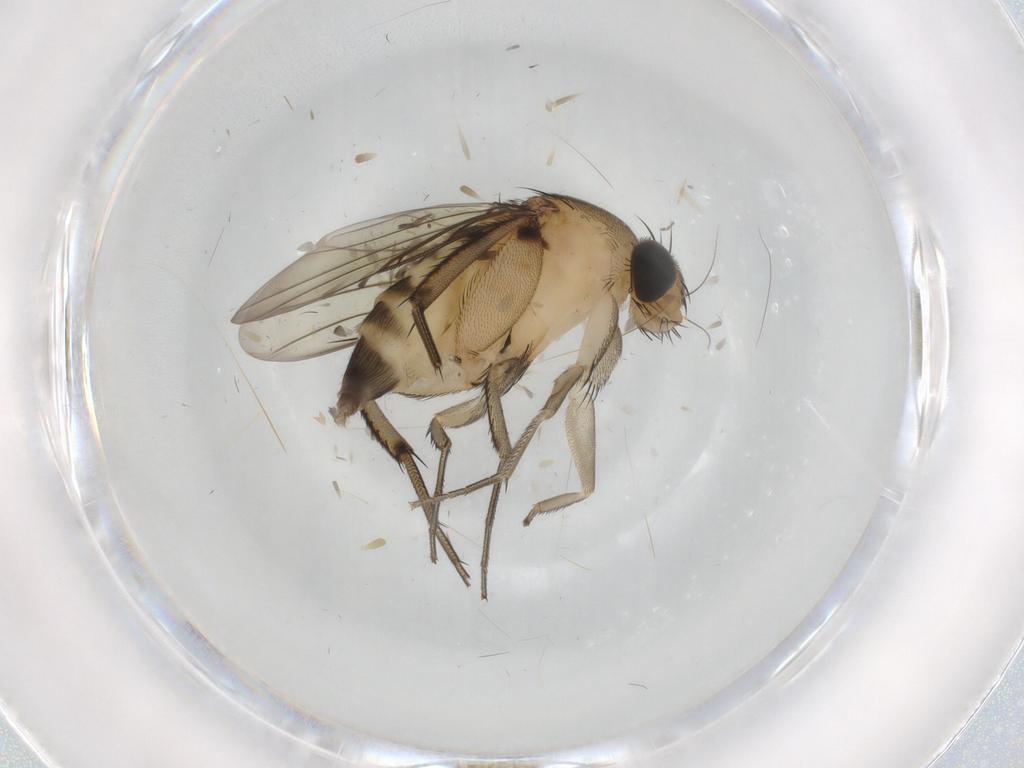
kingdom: Animalia
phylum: Arthropoda
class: Insecta
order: Diptera
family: Phoridae
